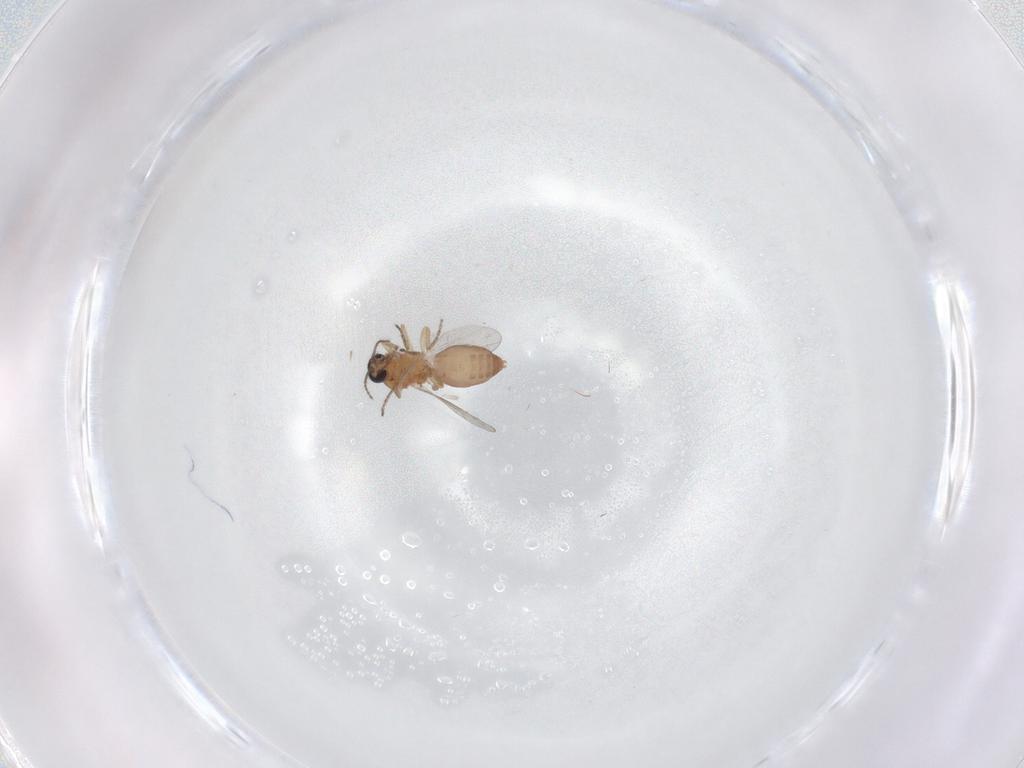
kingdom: Animalia
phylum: Arthropoda
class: Insecta
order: Diptera
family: Ceratopogonidae
